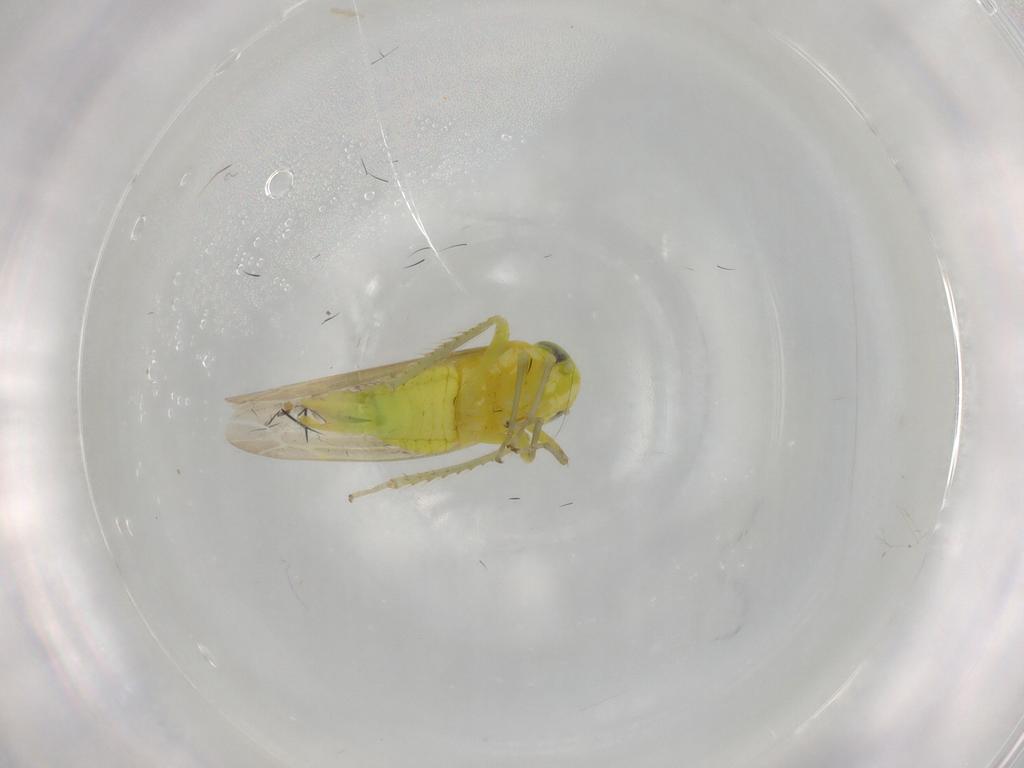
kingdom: Animalia
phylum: Arthropoda
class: Insecta
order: Hemiptera
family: Cicadellidae
